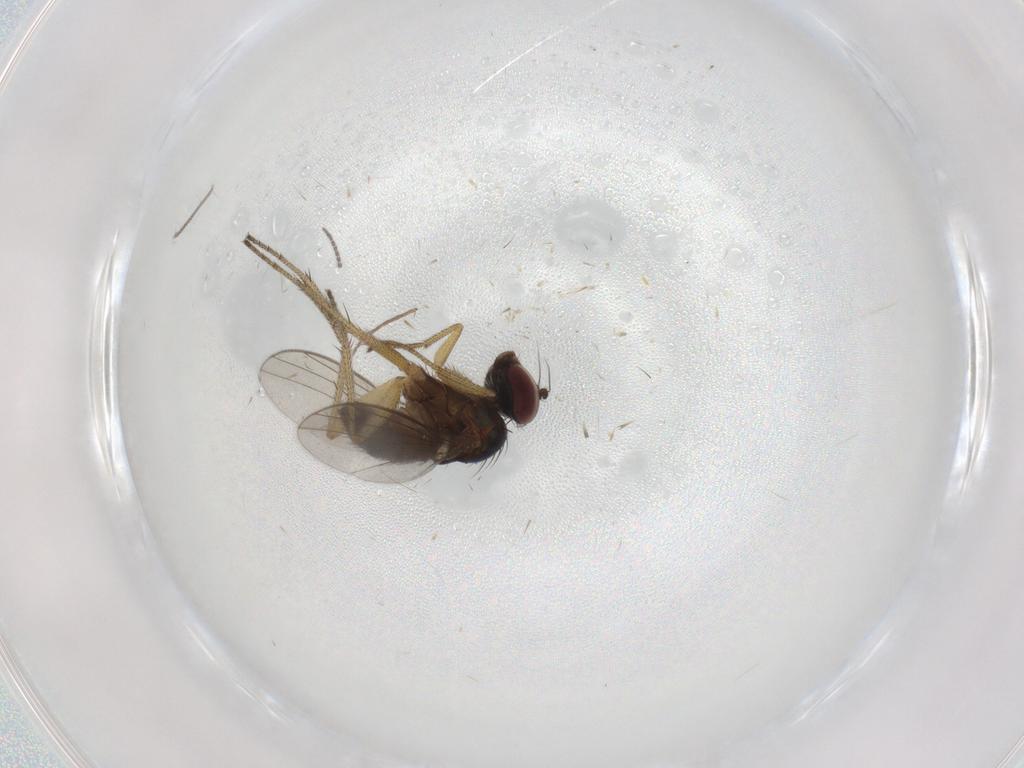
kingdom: Animalia
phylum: Arthropoda
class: Insecta
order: Diptera
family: Sciaridae
